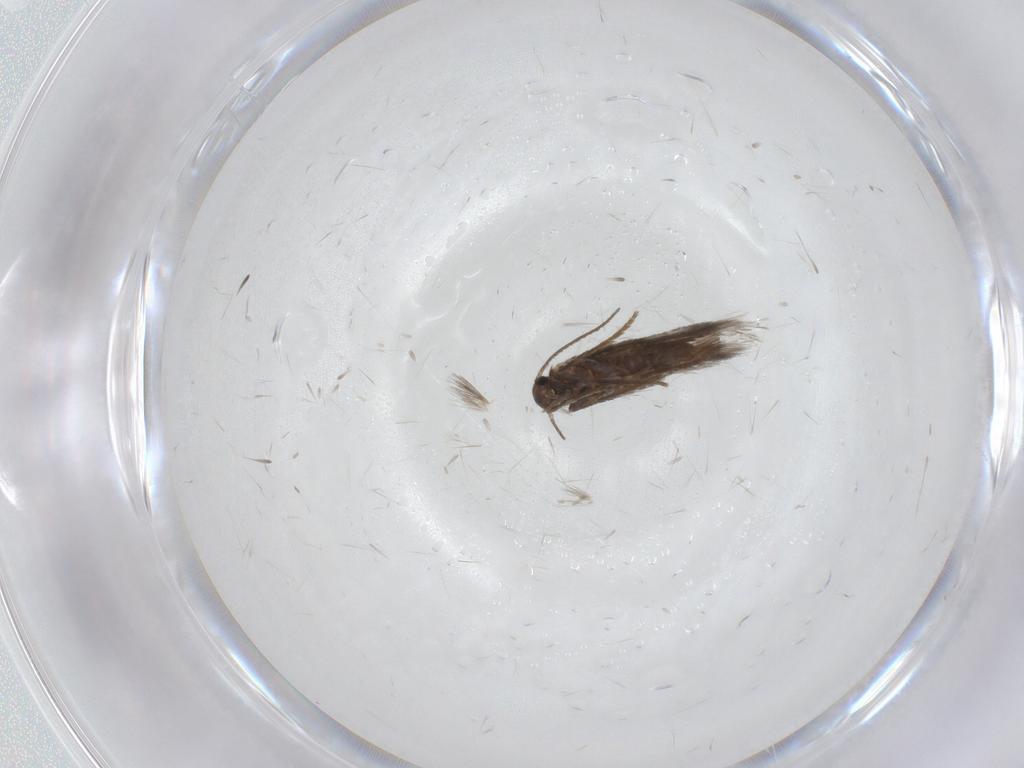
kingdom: Animalia
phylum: Arthropoda
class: Insecta
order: Lepidoptera
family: Heliozelidae
